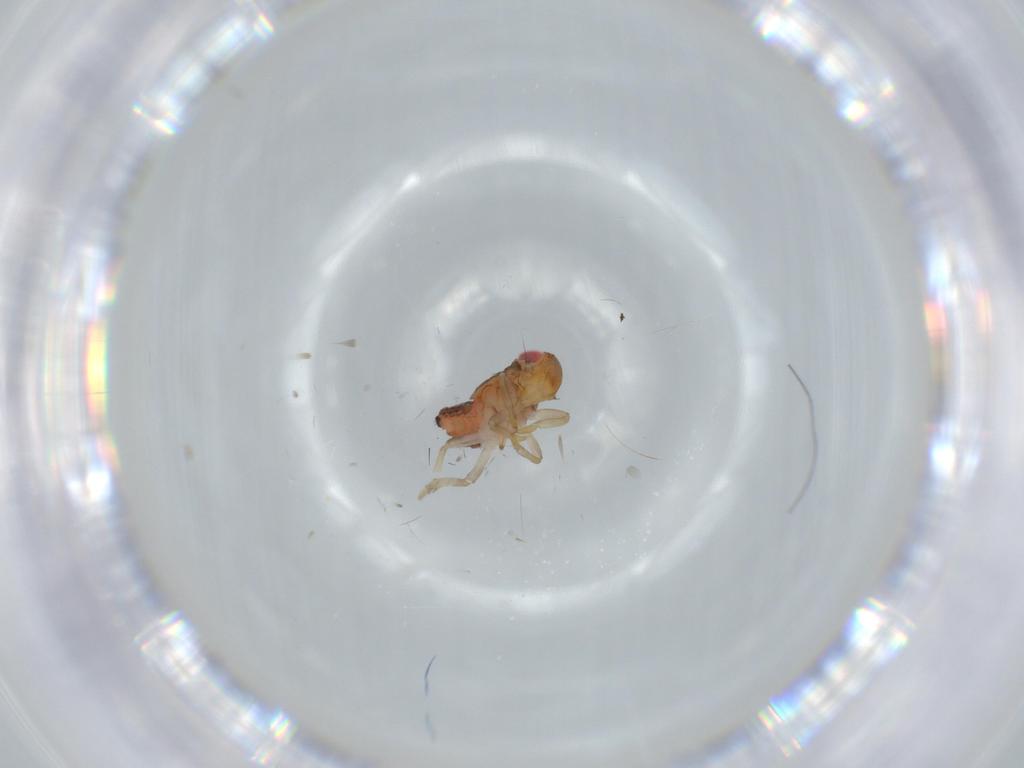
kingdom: Animalia
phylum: Arthropoda
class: Insecta
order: Hemiptera
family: Issidae
